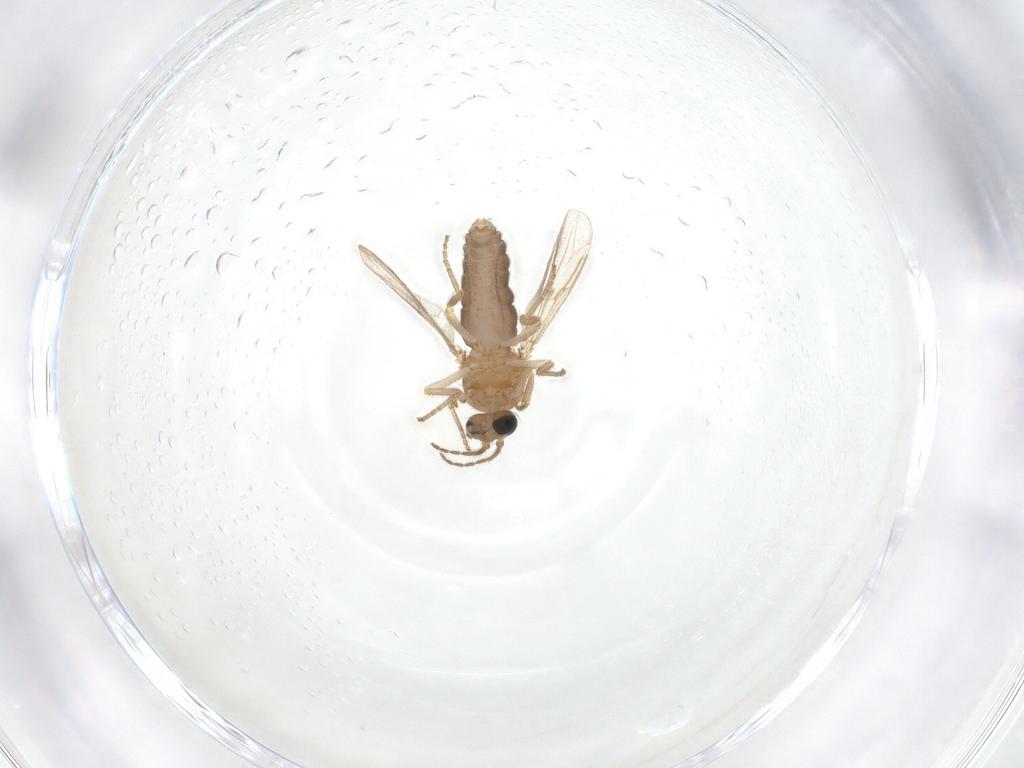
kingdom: Animalia
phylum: Arthropoda
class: Insecta
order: Diptera
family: Ceratopogonidae
